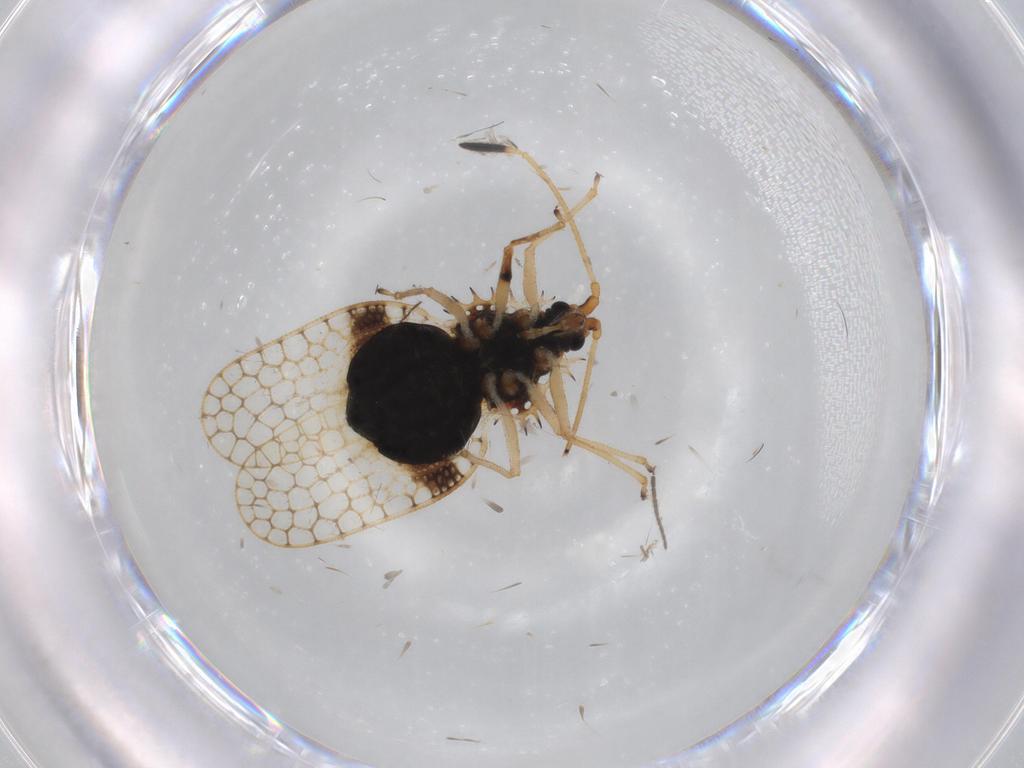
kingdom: Animalia
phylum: Arthropoda
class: Insecta
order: Hemiptera
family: Tingidae
